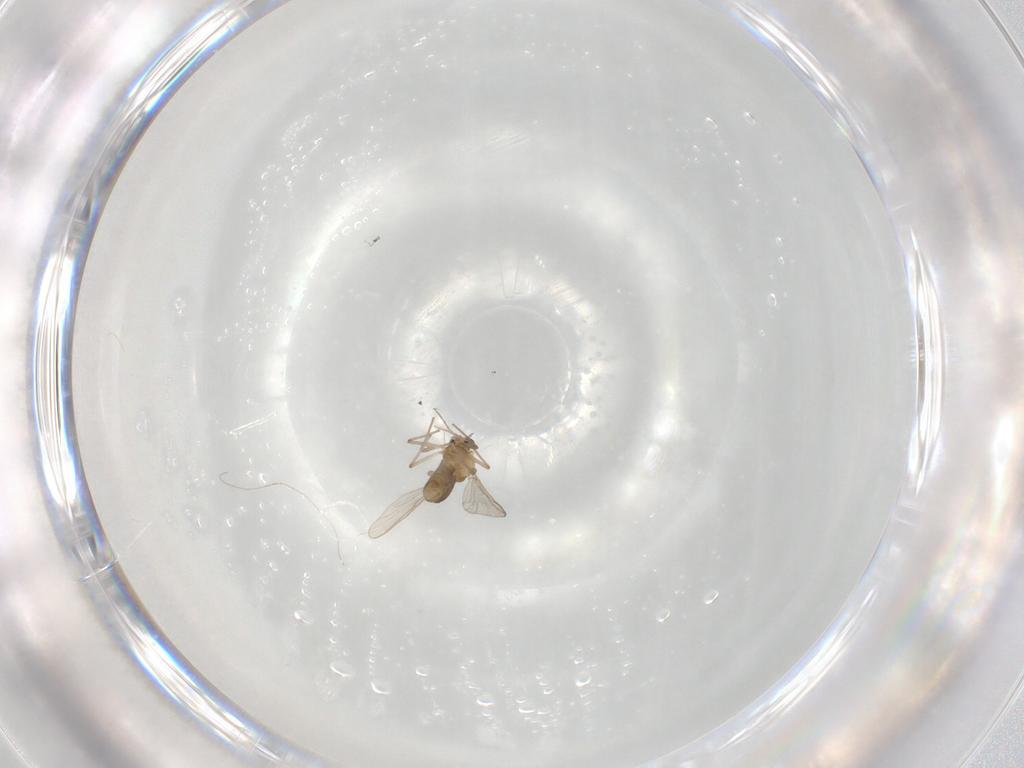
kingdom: Animalia
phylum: Arthropoda
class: Insecta
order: Diptera
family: Chironomidae
